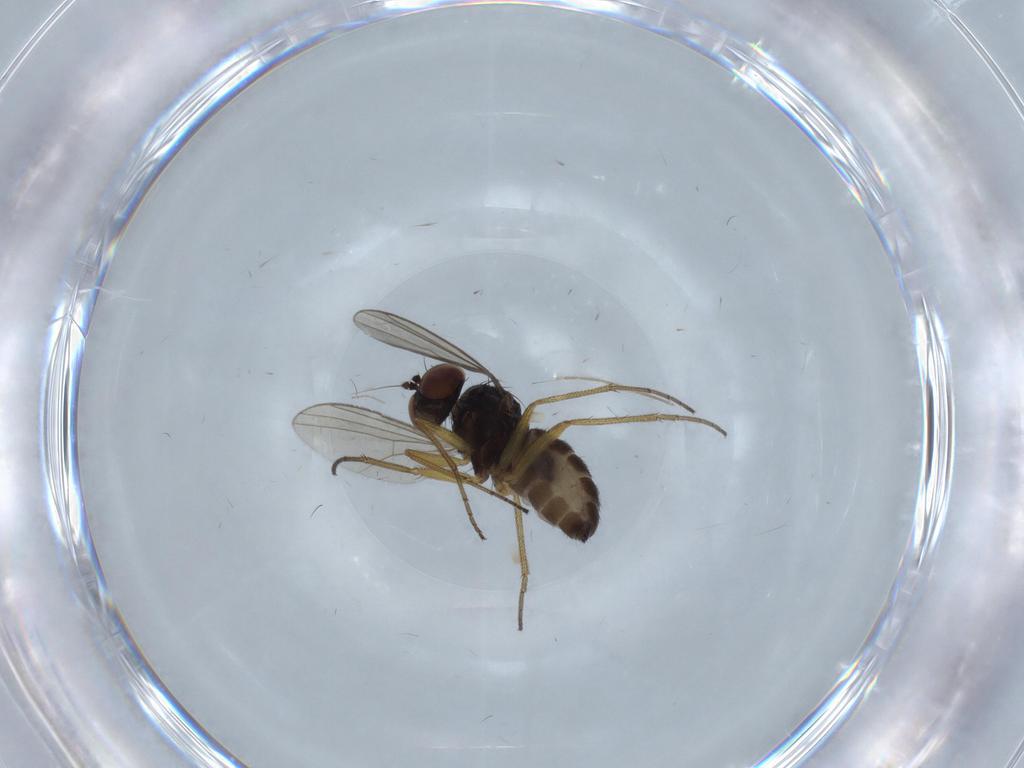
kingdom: Animalia
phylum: Arthropoda
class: Insecta
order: Diptera
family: Dolichopodidae
